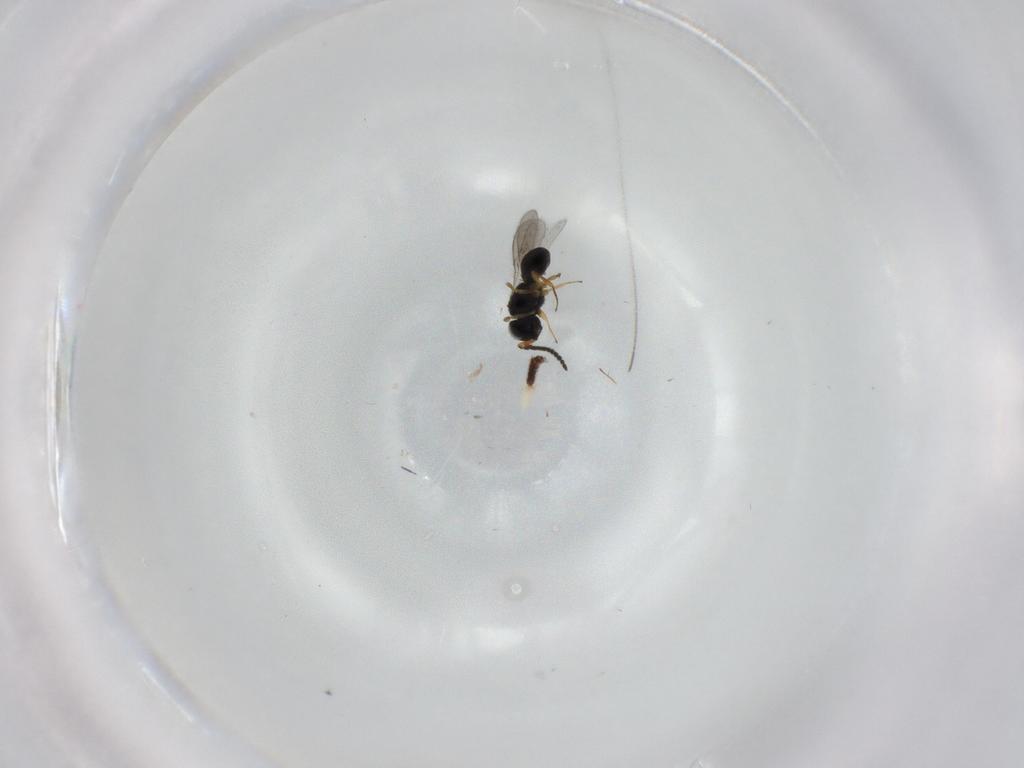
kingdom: Animalia
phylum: Arthropoda
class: Insecta
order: Hymenoptera
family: Scelionidae
